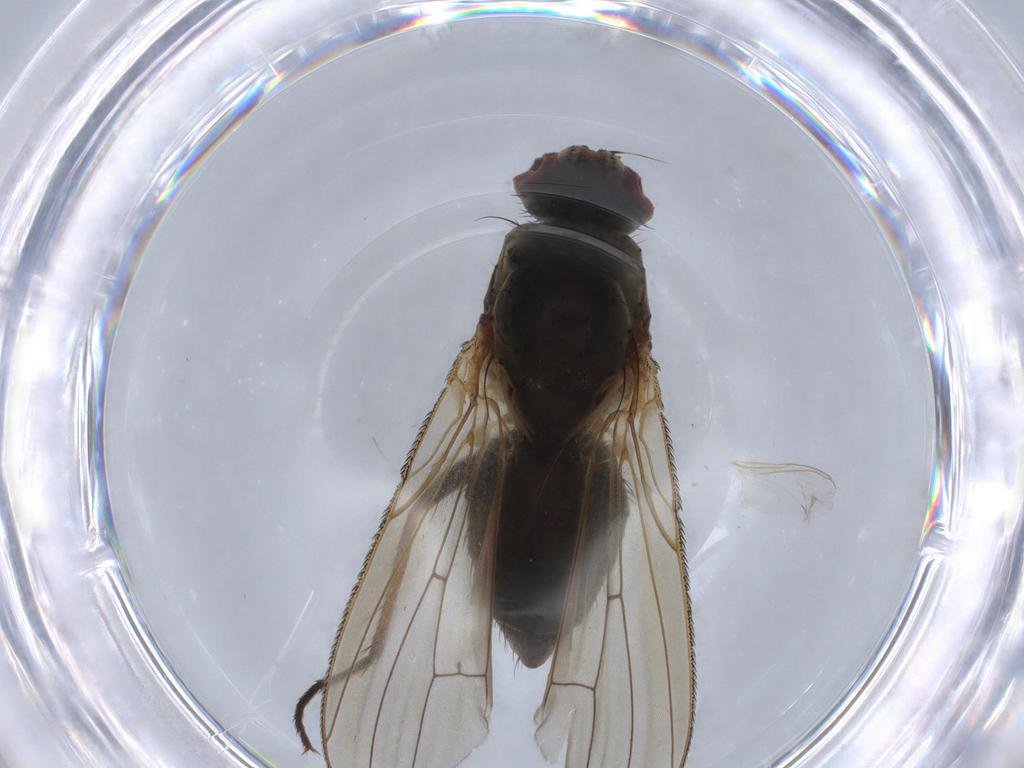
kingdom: Animalia
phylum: Arthropoda
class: Insecta
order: Diptera
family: Anthomyiidae
